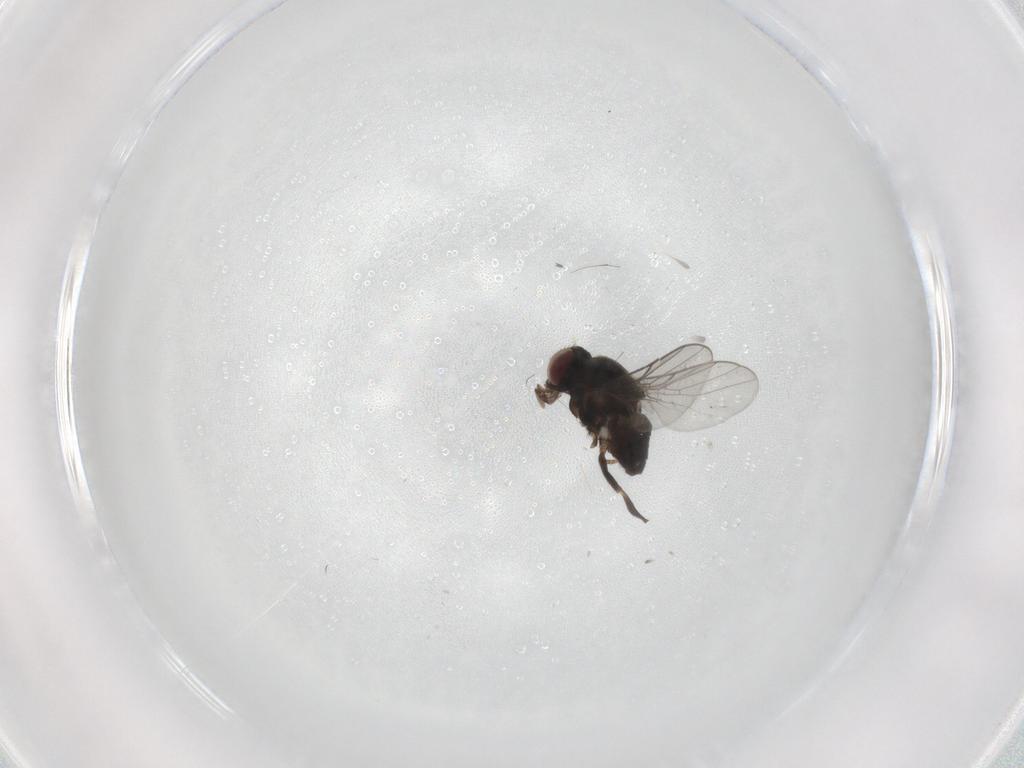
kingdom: Animalia
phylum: Arthropoda
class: Insecta
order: Diptera
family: Chloropidae
